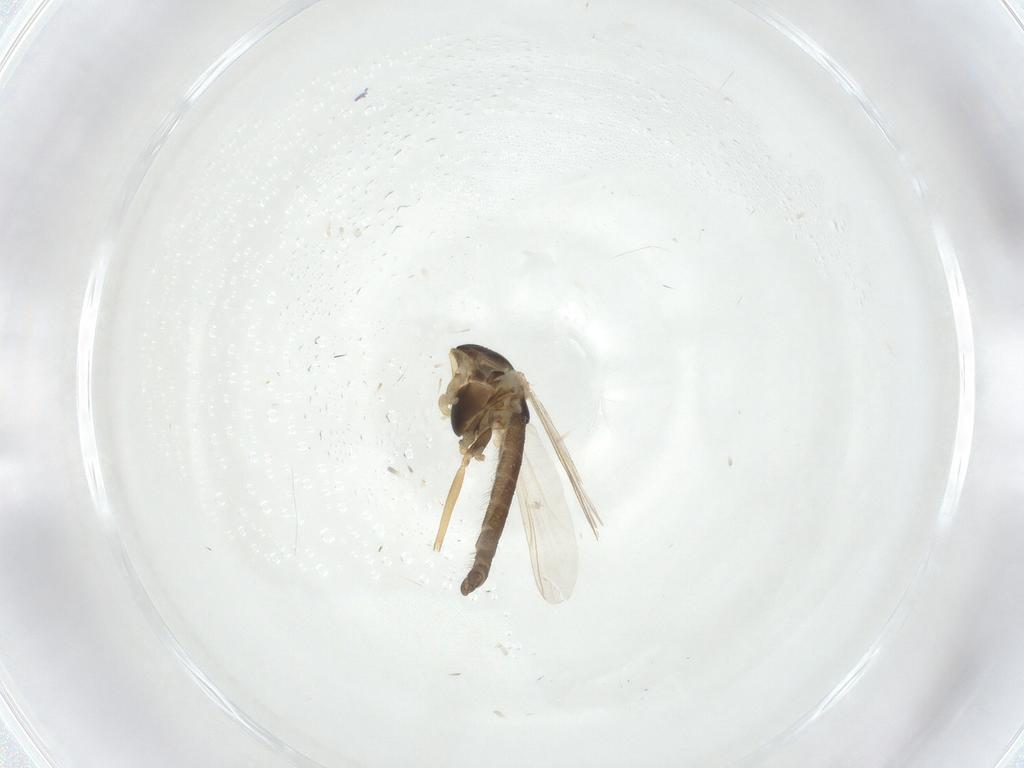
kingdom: Animalia
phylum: Arthropoda
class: Insecta
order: Diptera
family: Chironomidae
